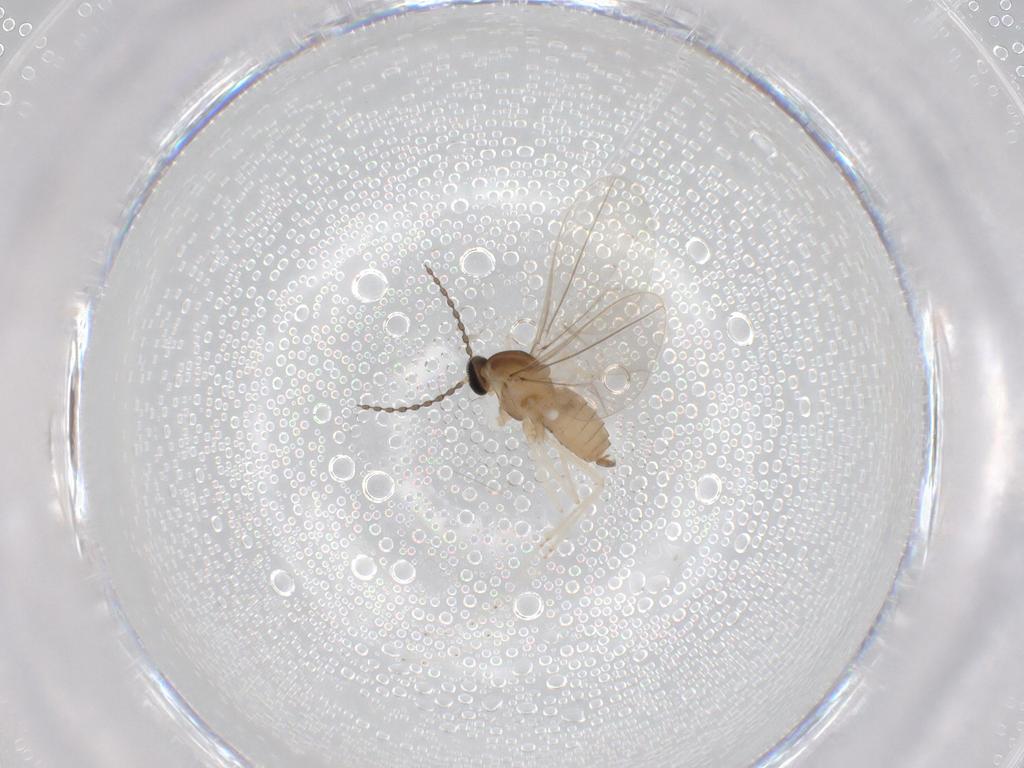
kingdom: Animalia
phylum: Arthropoda
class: Insecta
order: Diptera
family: Cecidomyiidae
